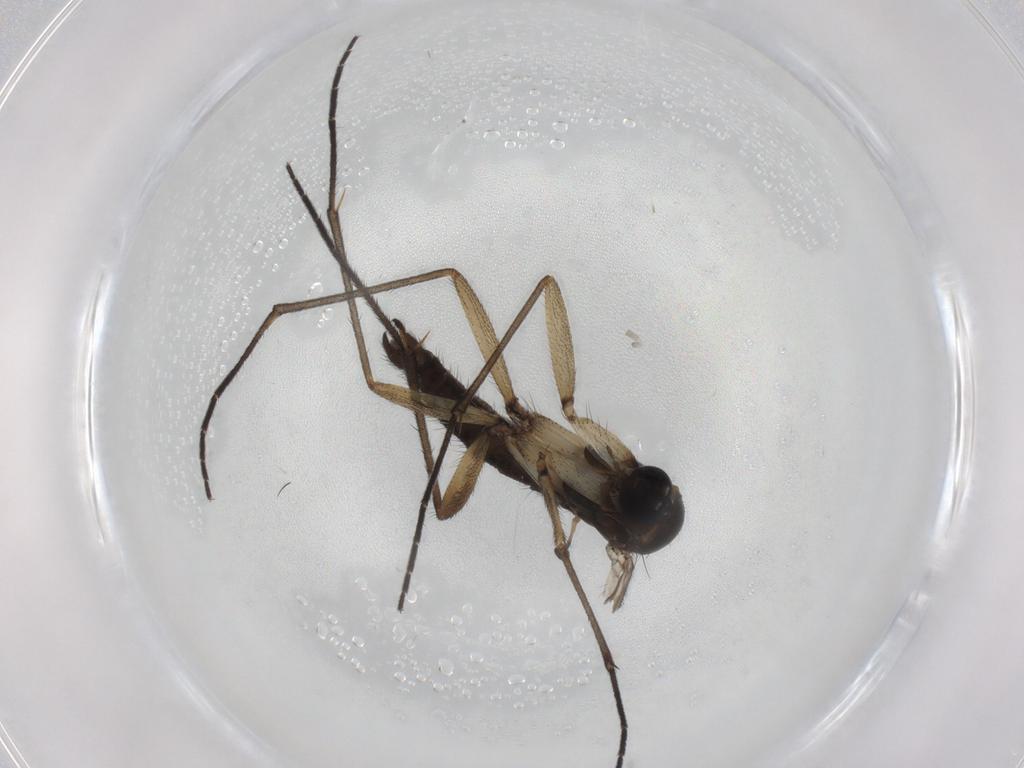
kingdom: Animalia
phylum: Arthropoda
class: Insecta
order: Diptera
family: Sciaridae
